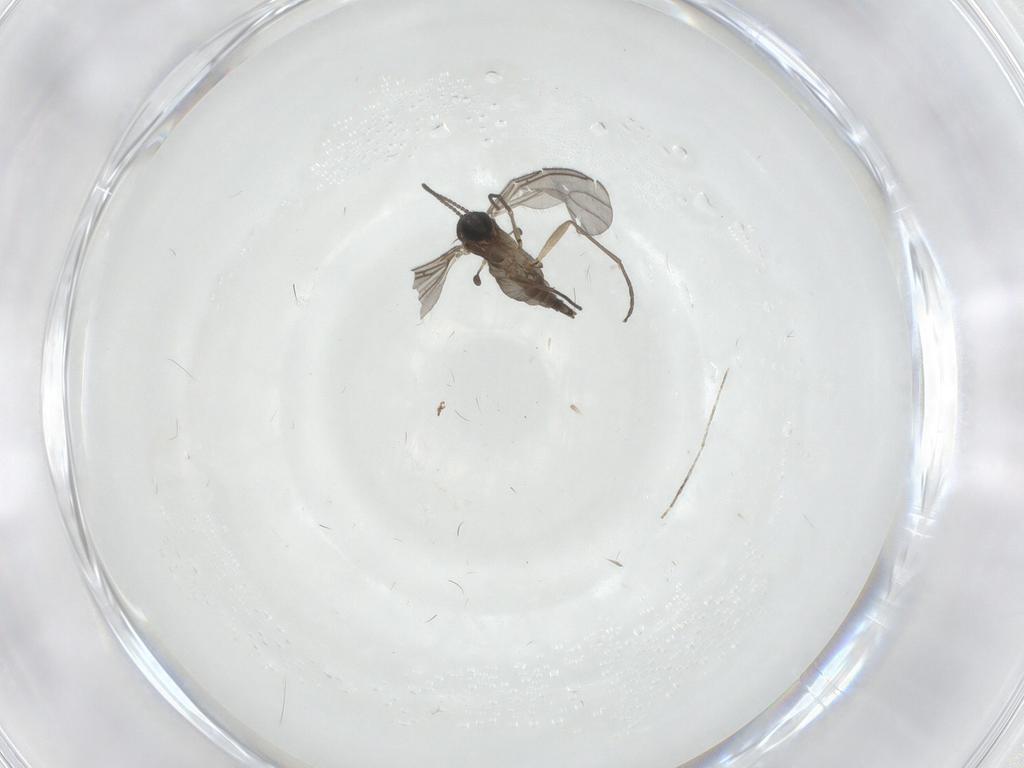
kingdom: Animalia
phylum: Arthropoda
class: Insecta
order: Diptera
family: Sciaridae
